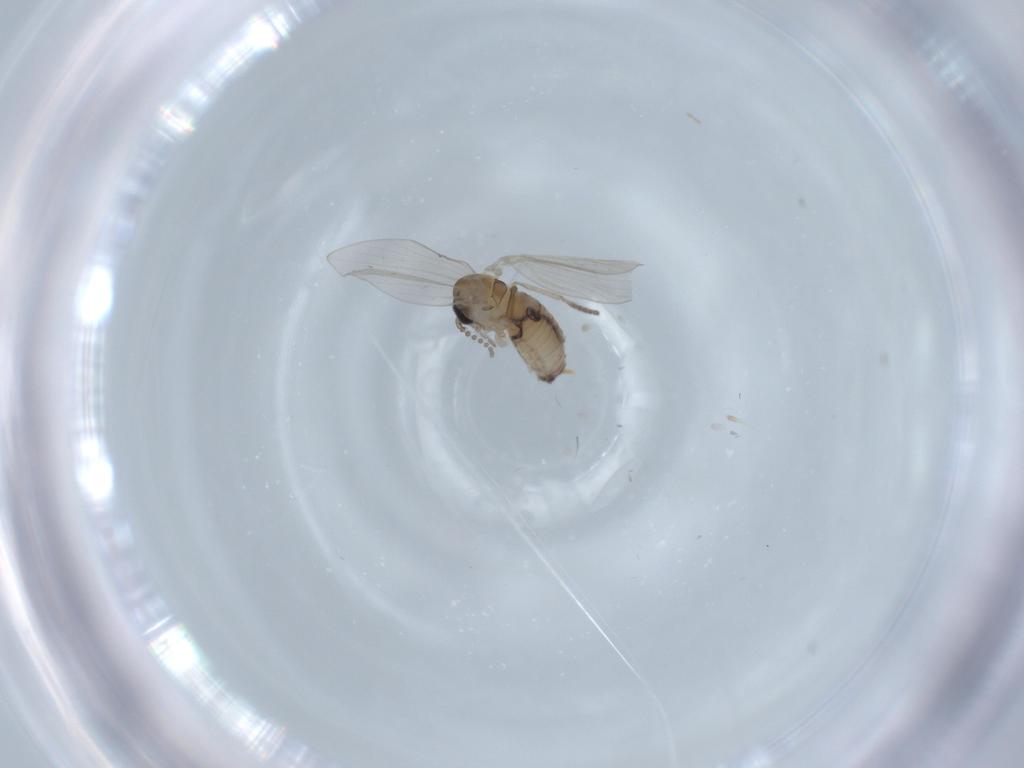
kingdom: Animalia
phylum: Arthropoda
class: Insecta
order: Diptera
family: Psychodidae
